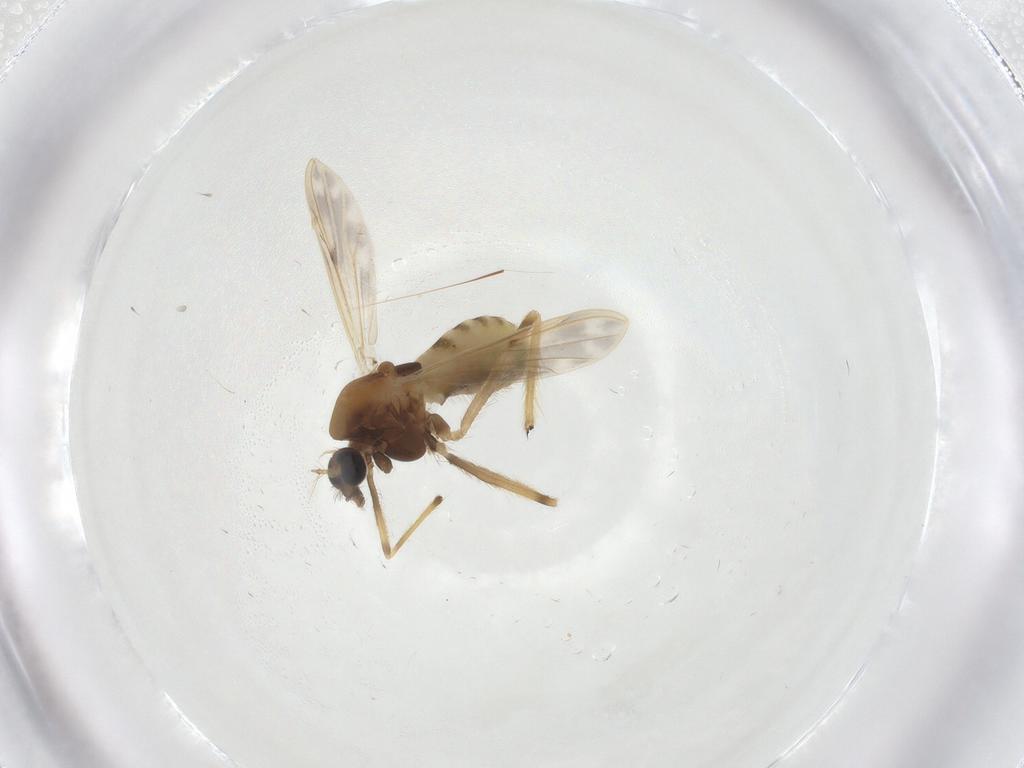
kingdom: Animalia
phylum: Arthropoda
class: Insecta
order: Diptera
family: Chironomidae
